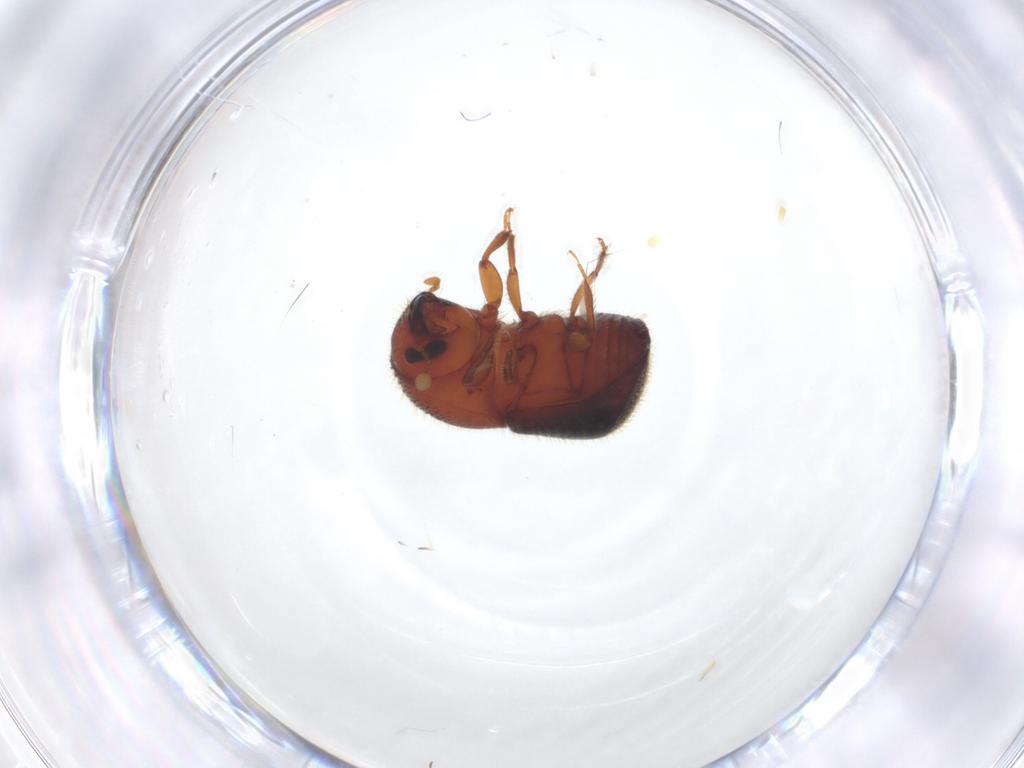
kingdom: Animalia
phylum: Arthropoda
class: Insecta
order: Coleoptera
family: Curculionidae
